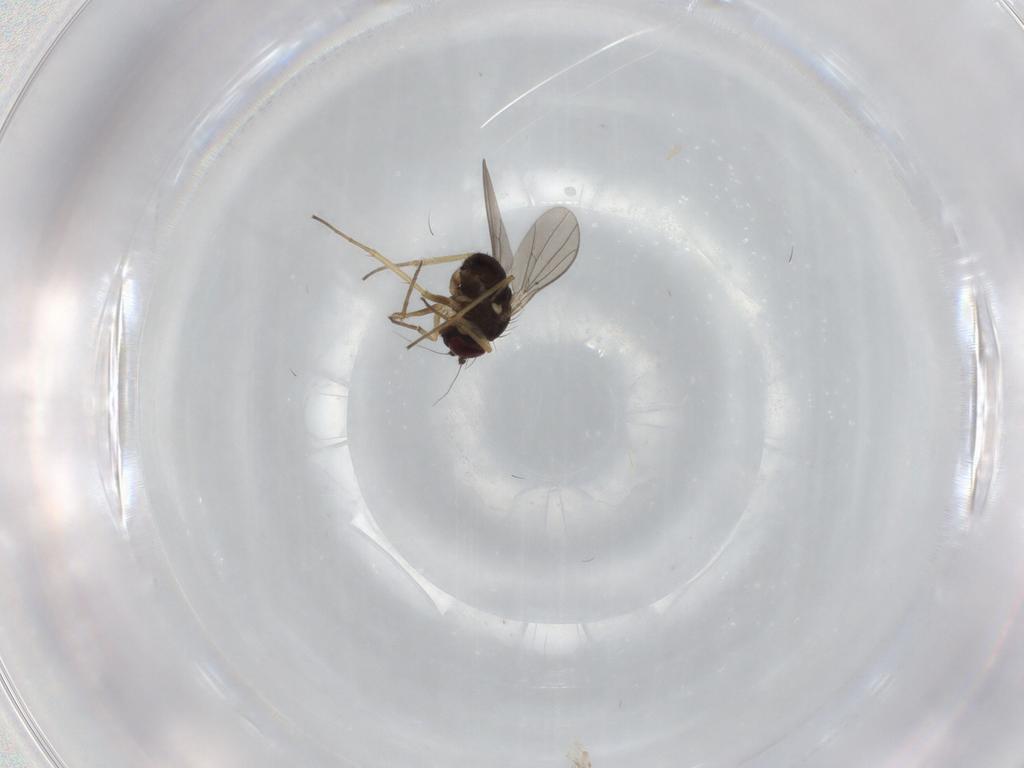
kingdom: Animalia
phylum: Arthropoda
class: Insecta
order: Diptera
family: Dolichopodidae
